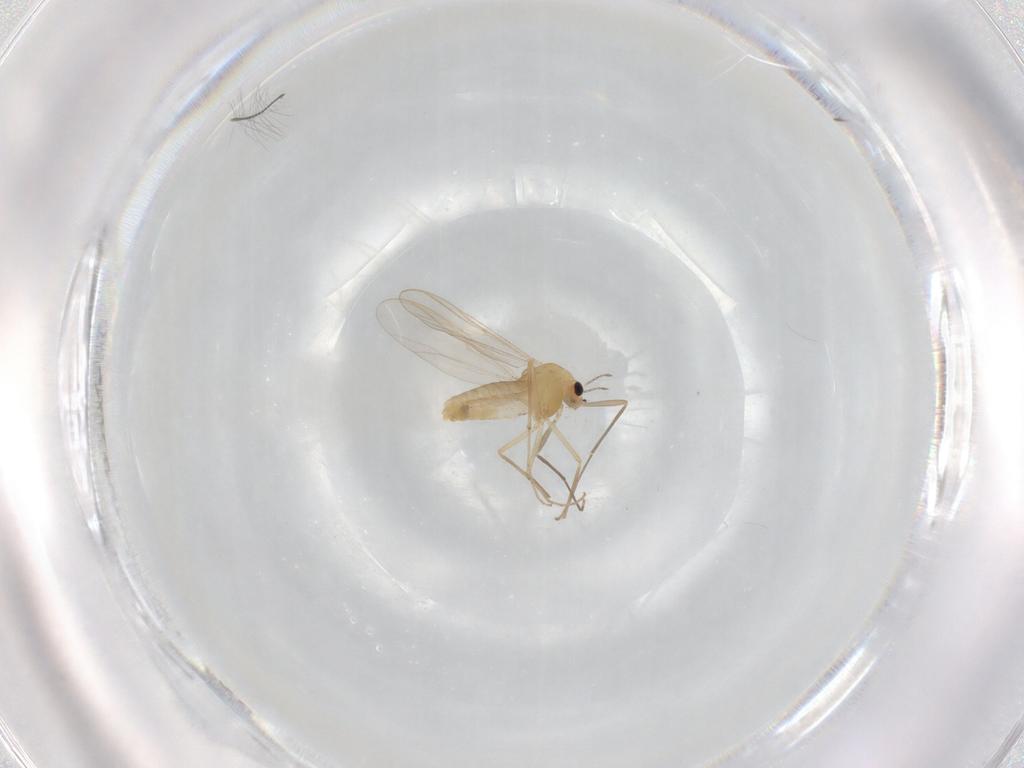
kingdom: Animalia
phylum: Arthropoda
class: Insecta
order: Diptera
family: Chironomidae
